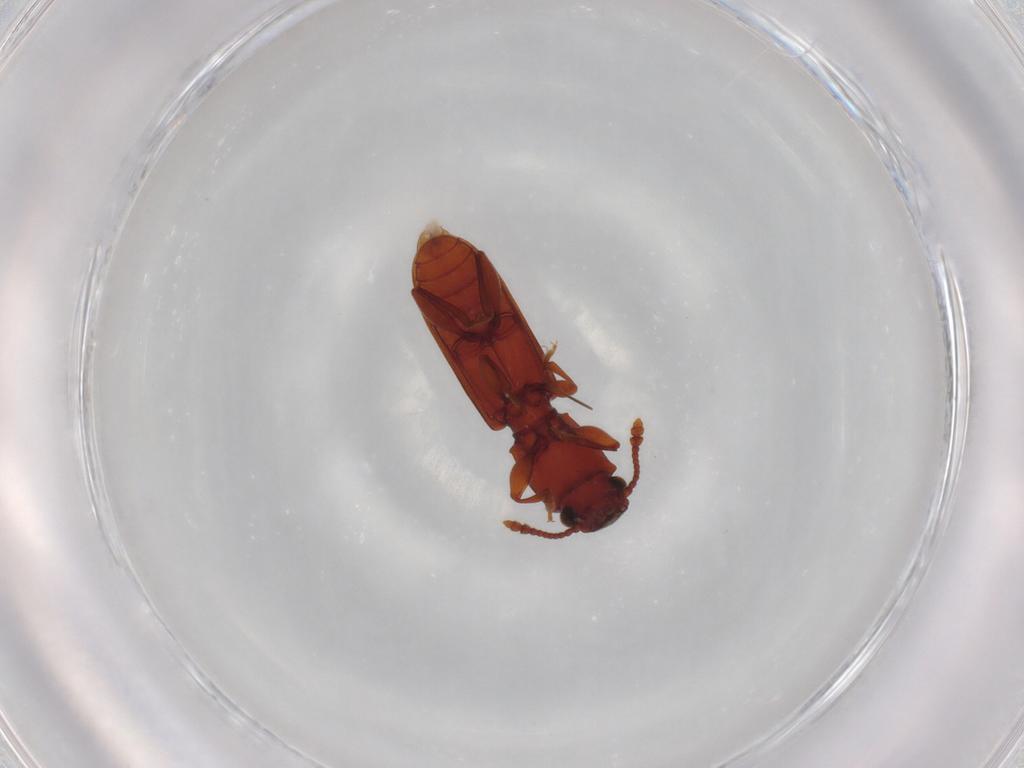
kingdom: Animalia
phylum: Arthropoda
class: Insecta
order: Coleoptera
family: Silvanidae
